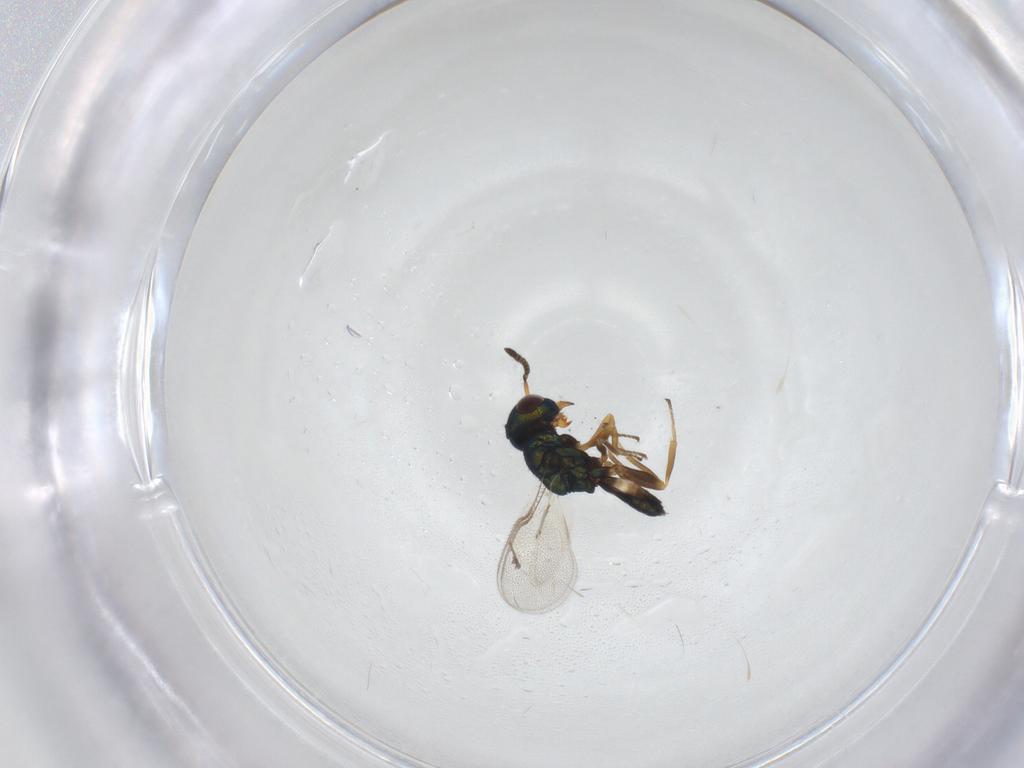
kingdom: Animalia
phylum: Arthropoda
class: Insecta
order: Hymenoptera
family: Pteromalidae
